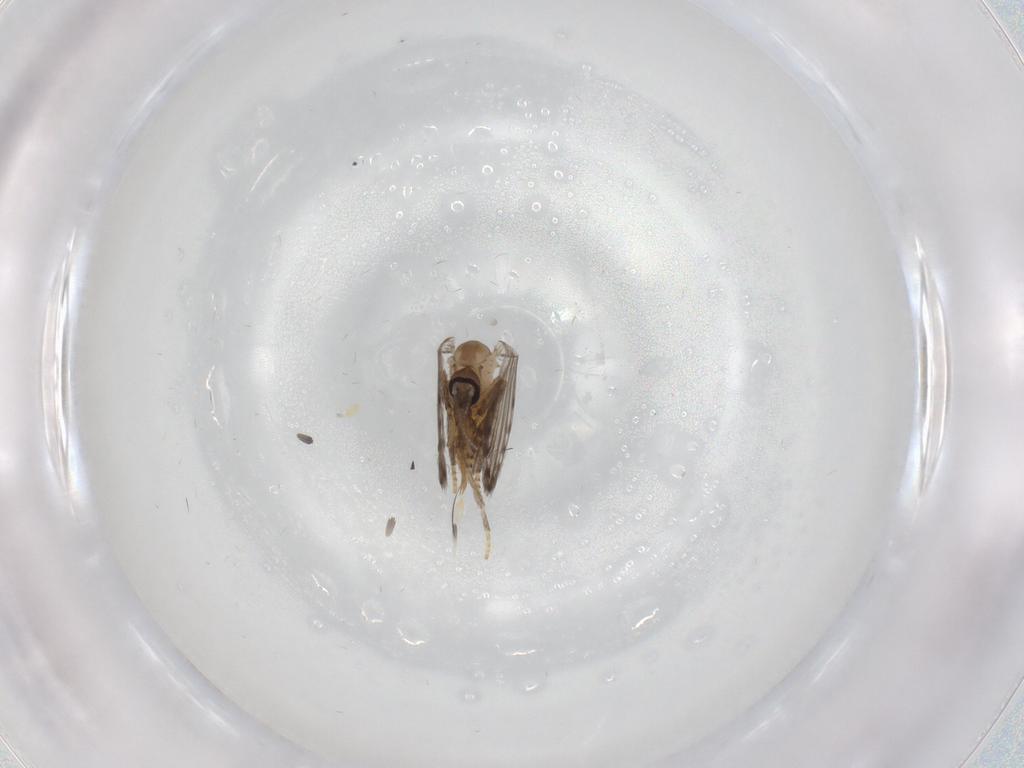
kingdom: Animalia
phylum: Arthropoda
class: Insecta
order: Diptera
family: Psychodidae
